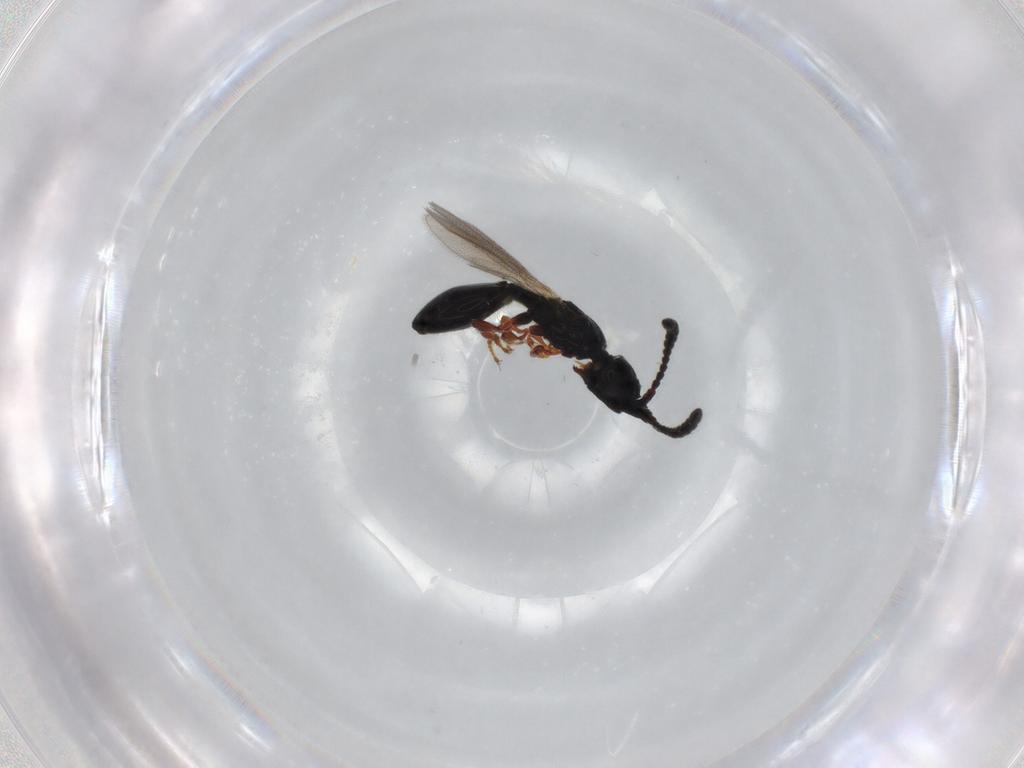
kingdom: Animalia
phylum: Arthropoda
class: Insecta
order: Hymenoptera
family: Diapriidae
